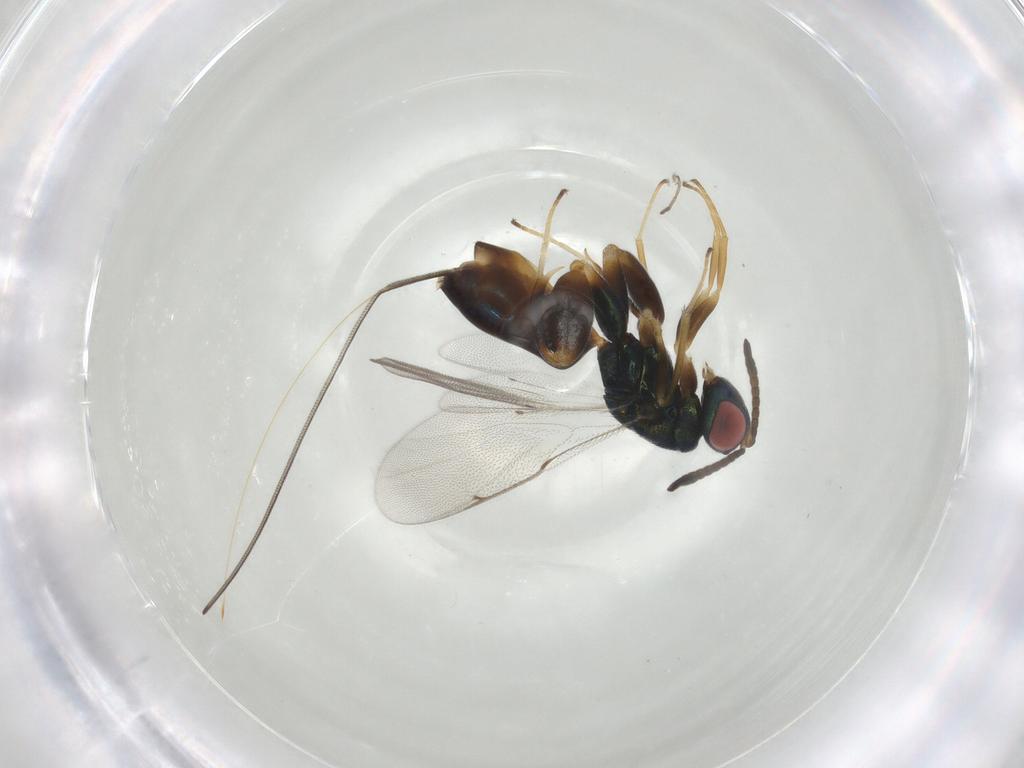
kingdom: Animalia
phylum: Arthropoda
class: Insecta
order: Hymenoptera
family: Torymidae
